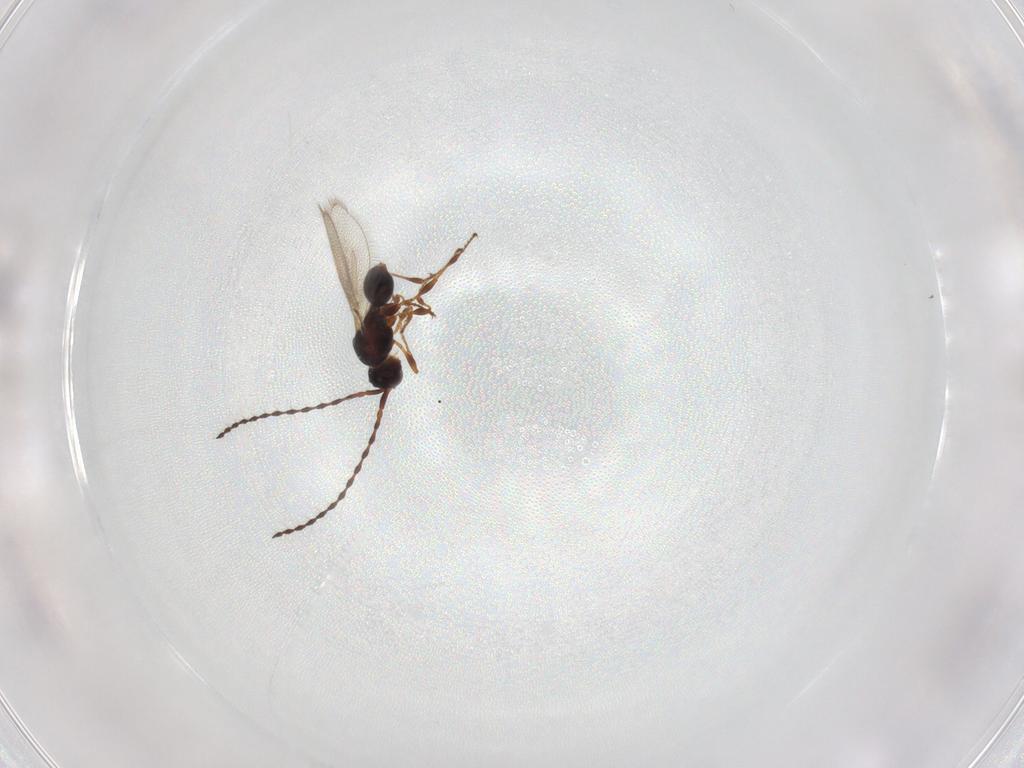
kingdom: Animalia
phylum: Arthropoda
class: Insecta
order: Hymenoptera
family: Diapriidae
